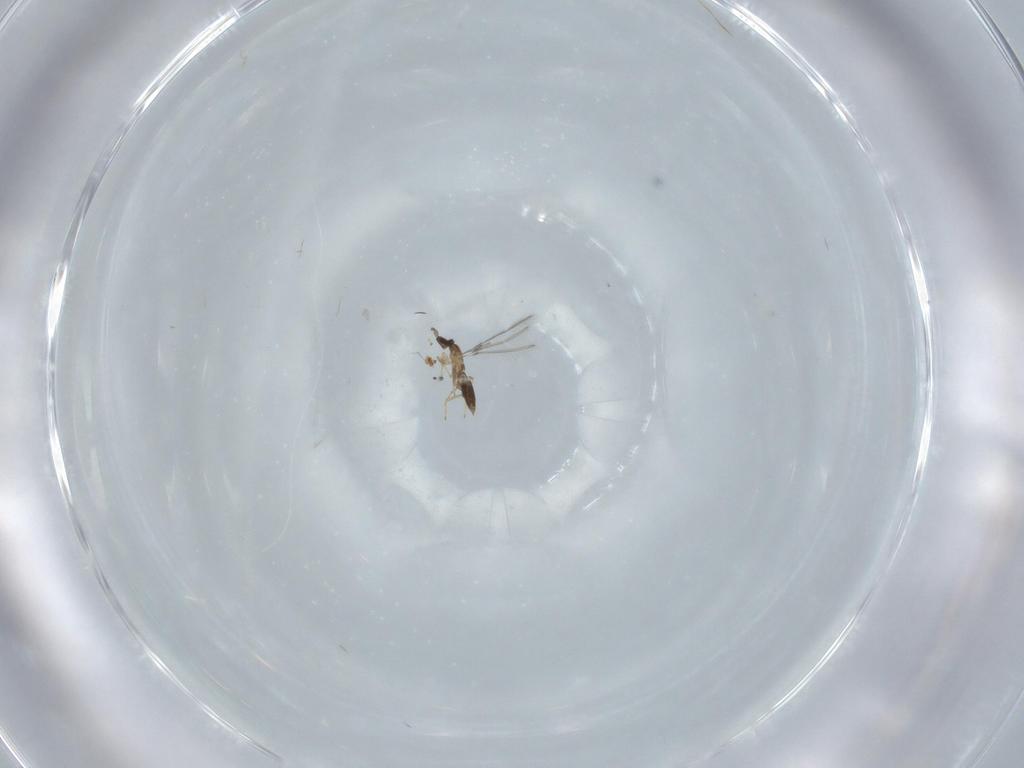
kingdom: Animalia
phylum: Arthropoda
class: Insecta
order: Hymenoptera
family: Mymaridae
